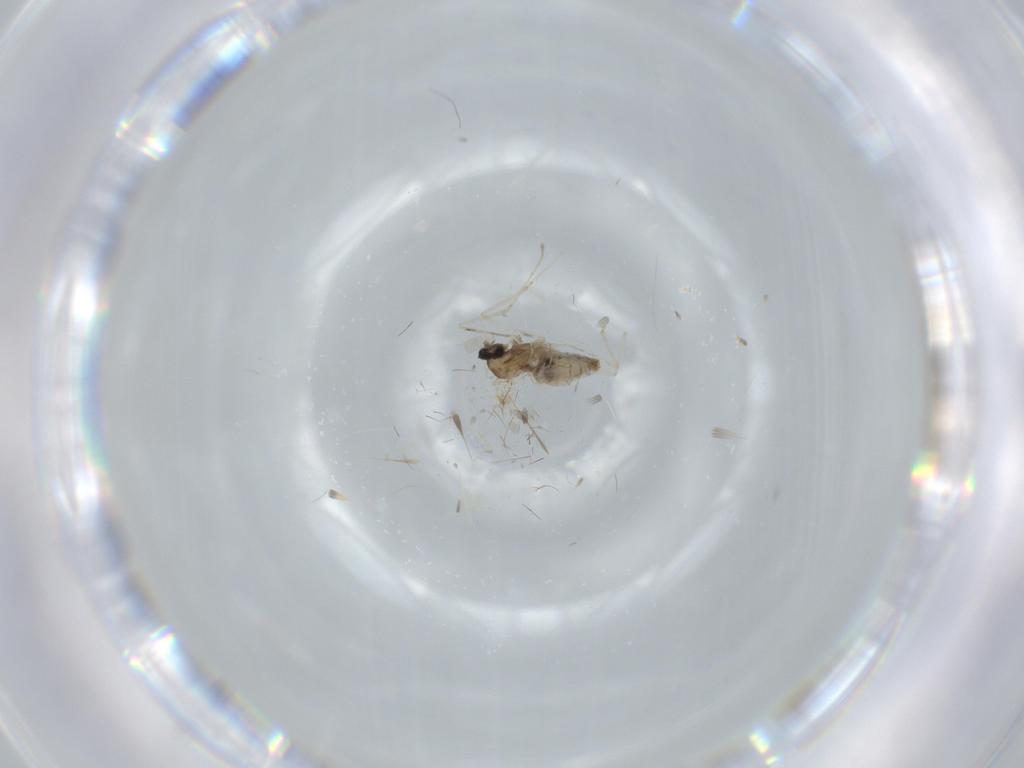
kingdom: Animalia
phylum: Arthropoda
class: Insecta
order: Diptera
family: Cecidomyiidae
